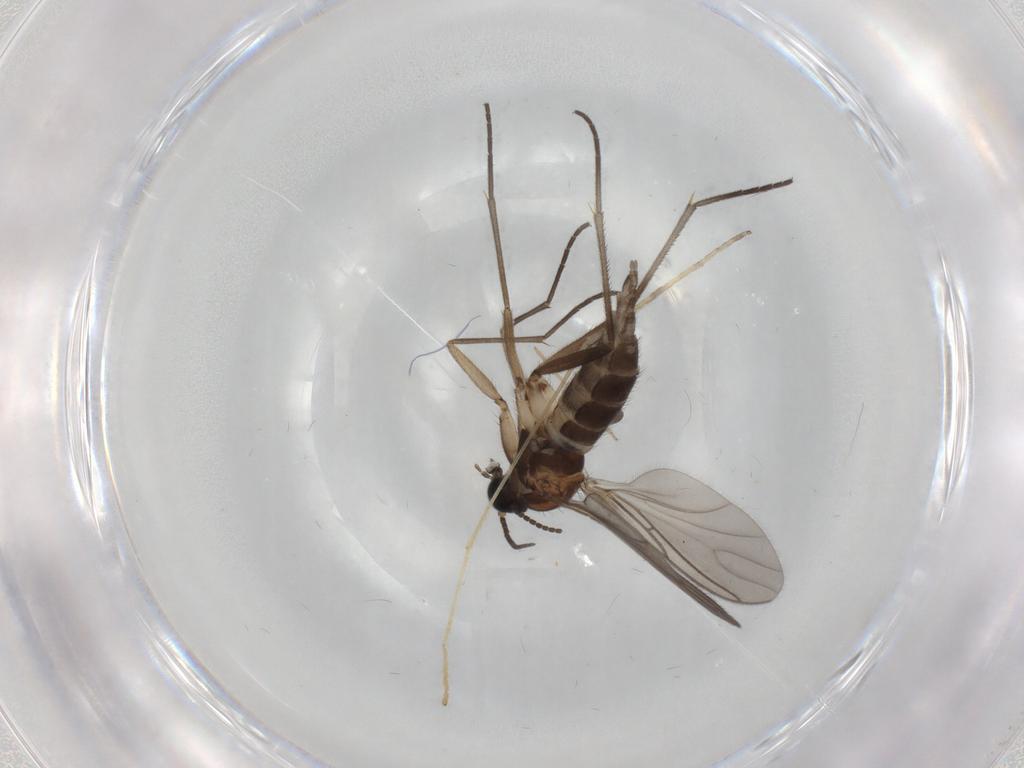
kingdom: Animalia
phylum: Arthropoda
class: Insecta
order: Diptera
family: Sciaridae
